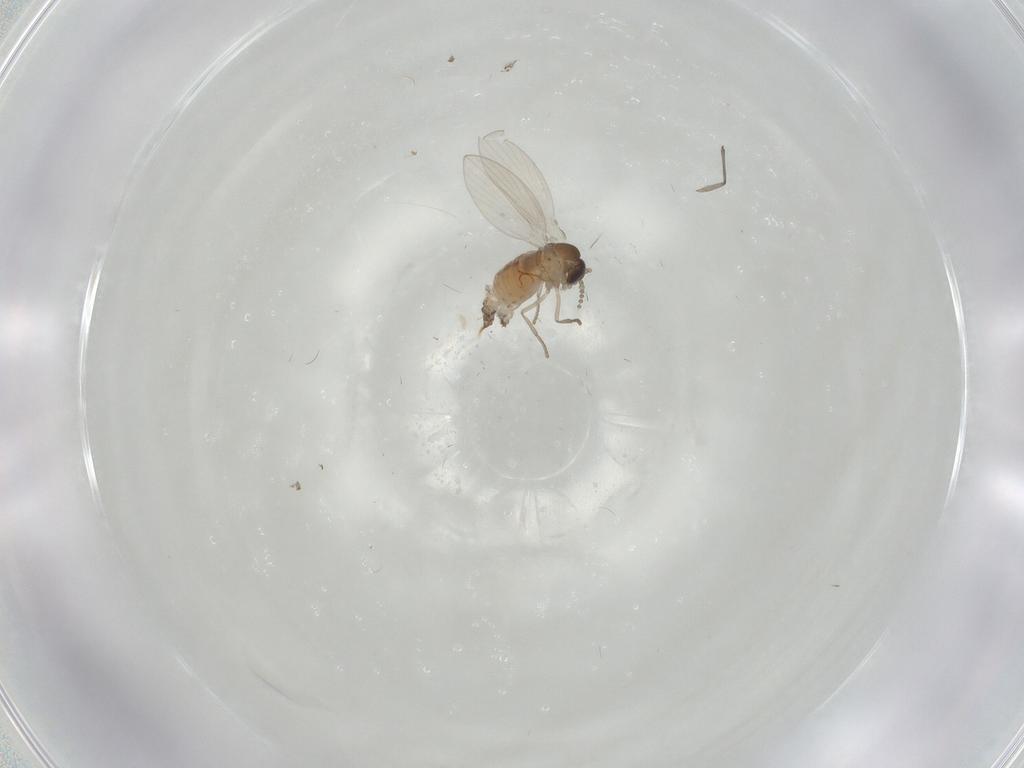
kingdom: Animalia
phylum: Arthropoda
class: Insecta
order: Diptera
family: Psychodidae
